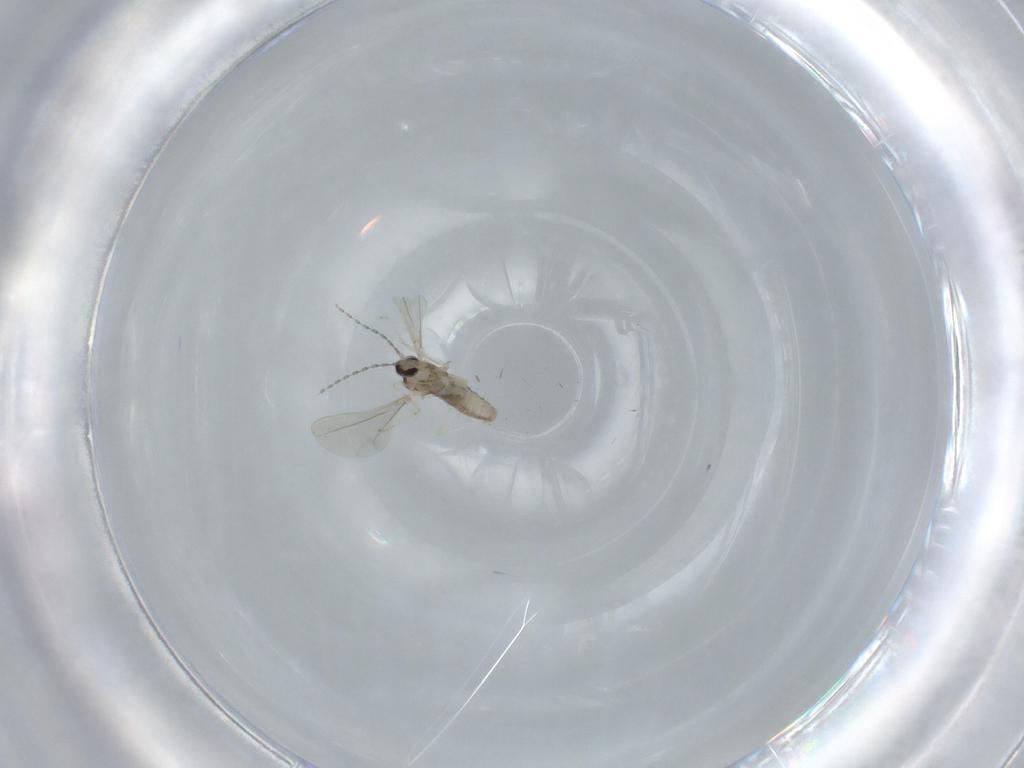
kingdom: Animalia
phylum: Arthropoda
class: Insecta
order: Diptera
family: Cecidomyiidae
